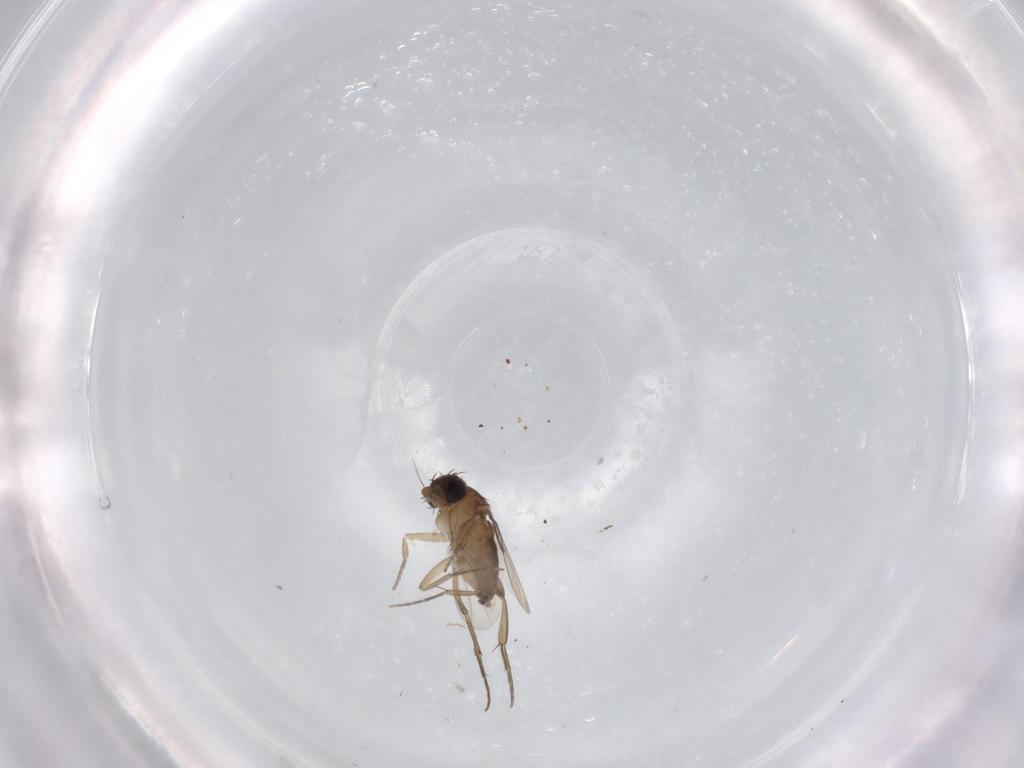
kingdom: Animalia
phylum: Arthropoda
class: Insecta
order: Diptera
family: Phoridae
